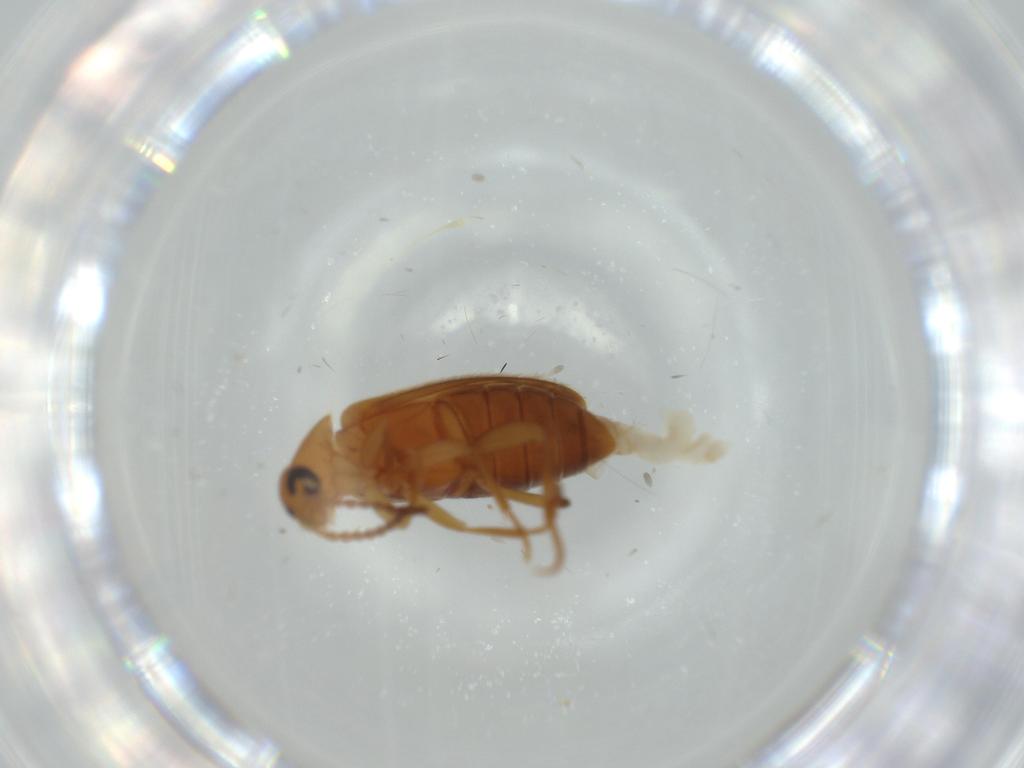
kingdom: Animalia
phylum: Arthropoda
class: Insecta
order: Coleoptera
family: Scraptiidae
